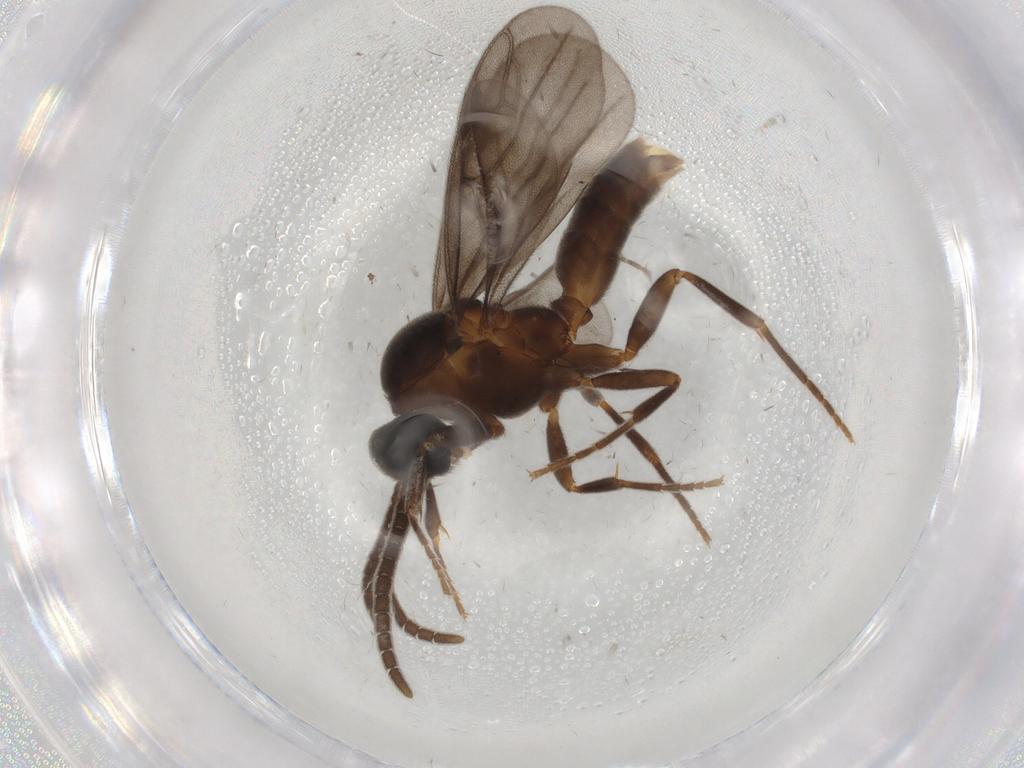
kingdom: Animalia
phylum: Arthropoda
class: Insecta
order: Hymenoptera
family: Formicidae
